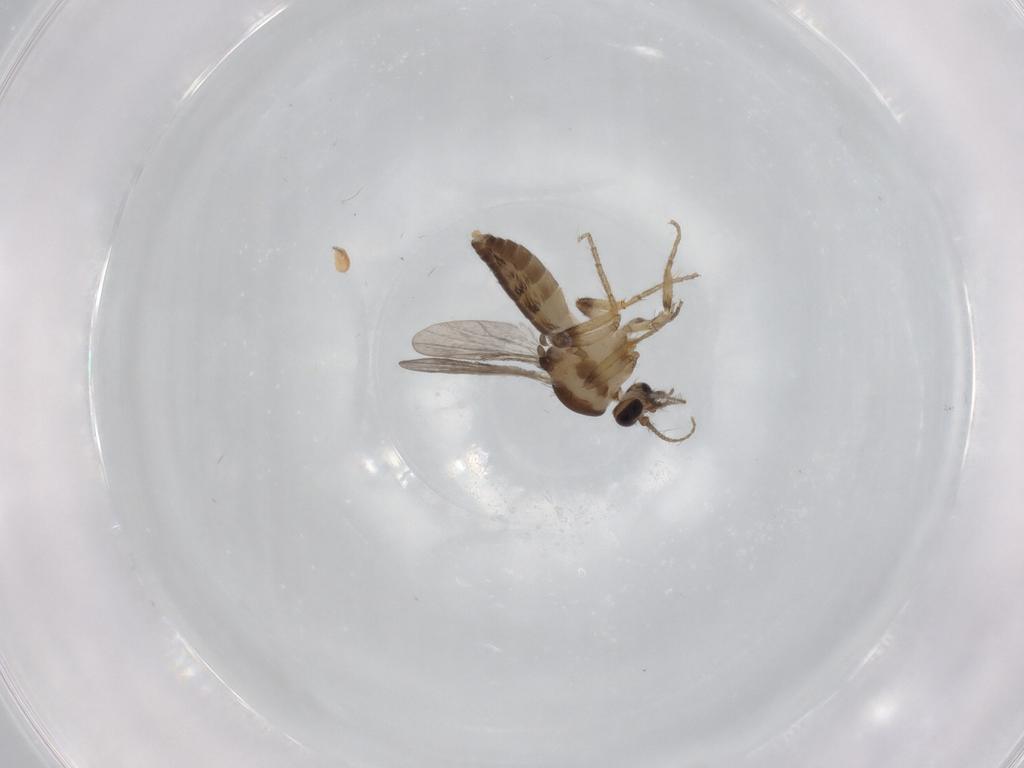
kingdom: Animalia
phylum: Arthropoda
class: Insecta
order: Diptera
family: Ceratopogonidae
